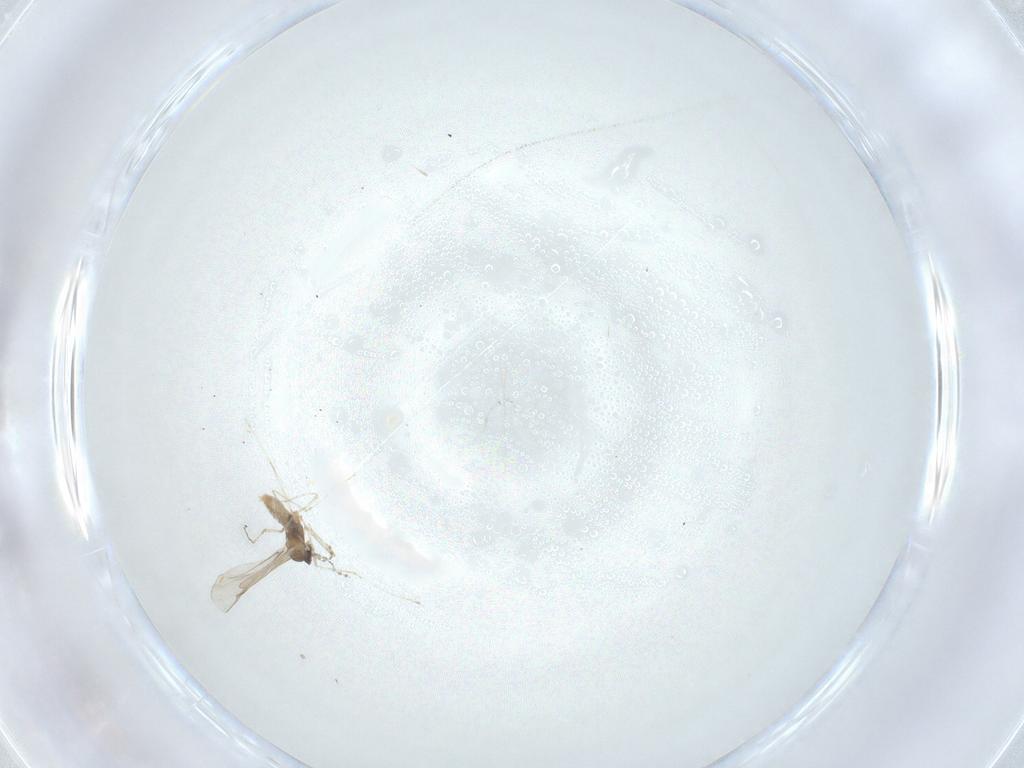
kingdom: Animalia
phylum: Arthropoda
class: Insecta
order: Diptera
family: Cecidomyiidae
